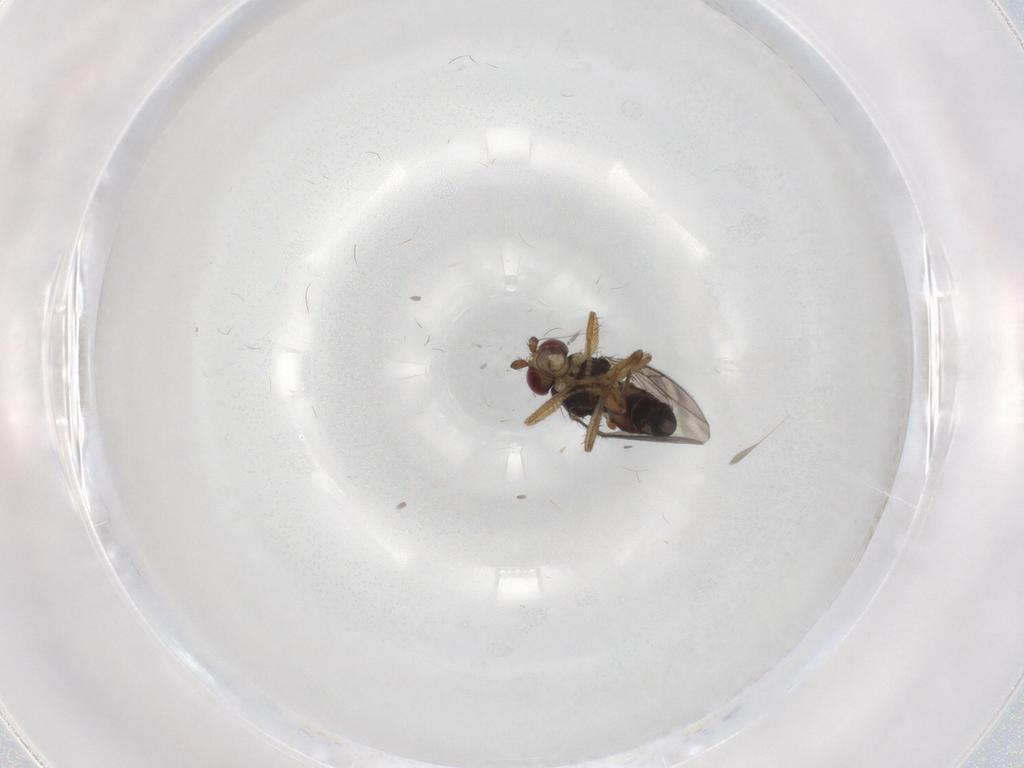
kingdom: Animalia
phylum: Arthropoda
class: Insecta
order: Diptera
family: Sphaeroceridae
